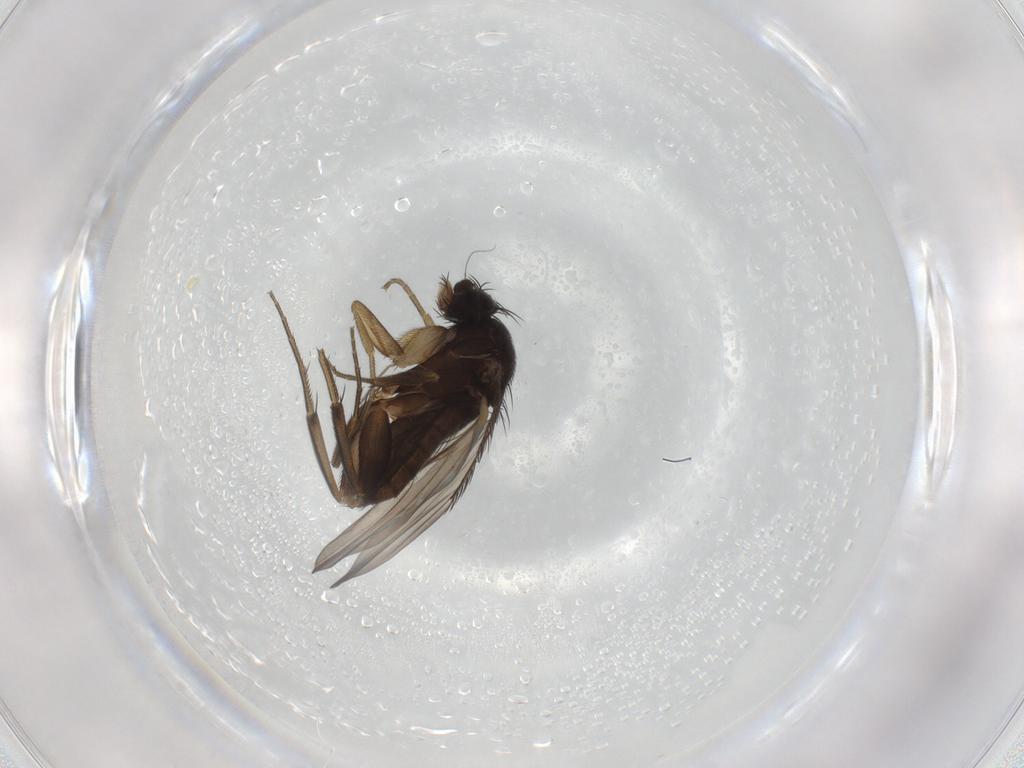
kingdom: Animalia
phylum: Arthropoda
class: Insecta
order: Diptera
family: Phoridae
